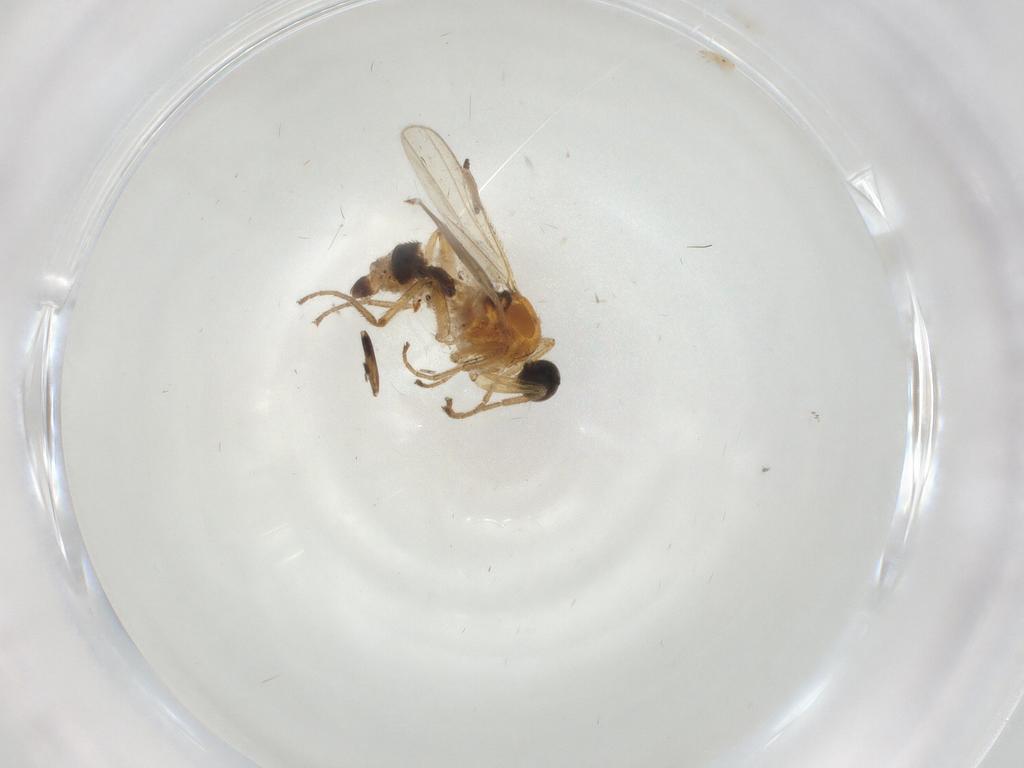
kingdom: Animalia
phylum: Arthropoda
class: Insecta
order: Diptera
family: Hybotidae
